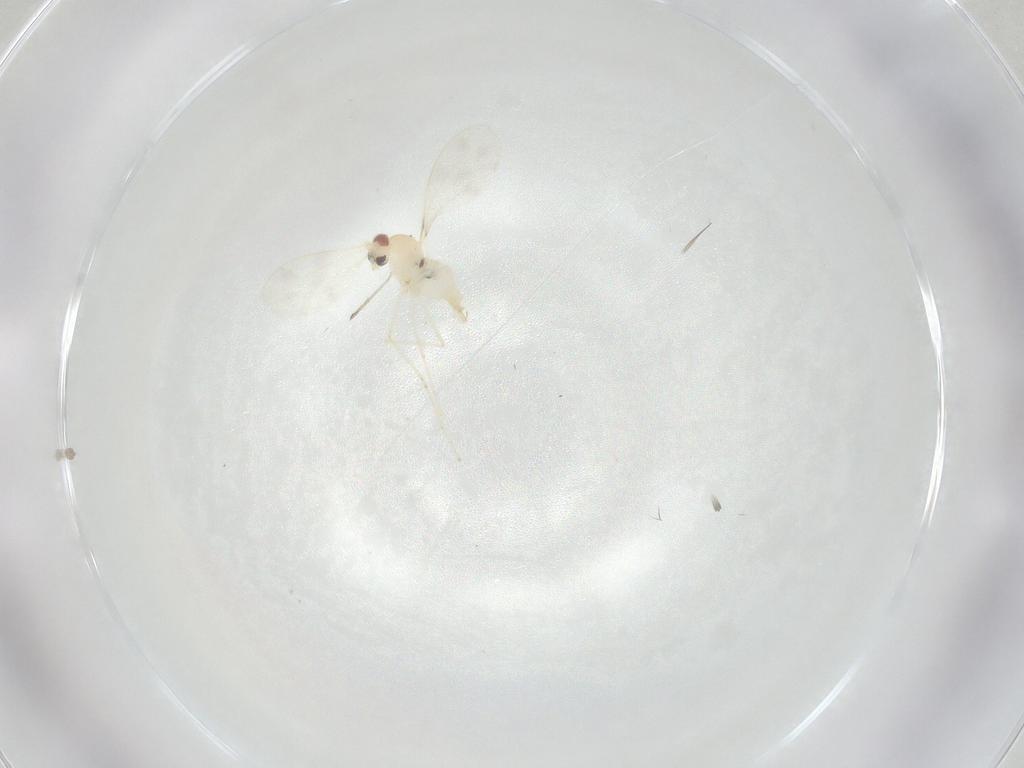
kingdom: Animalia
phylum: Arthropoda
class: Insecta
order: Diptera
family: Cecidomyiidae
